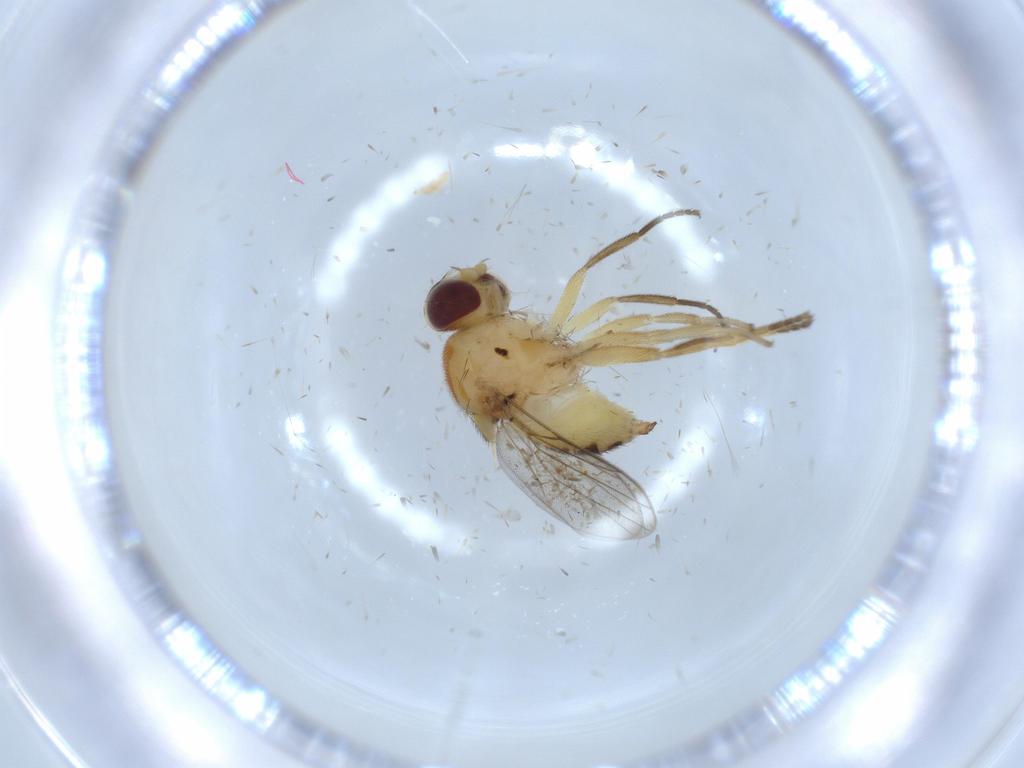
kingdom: Animalia
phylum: Arthropoda
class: Insecta
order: Diptera
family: Chloropidae
